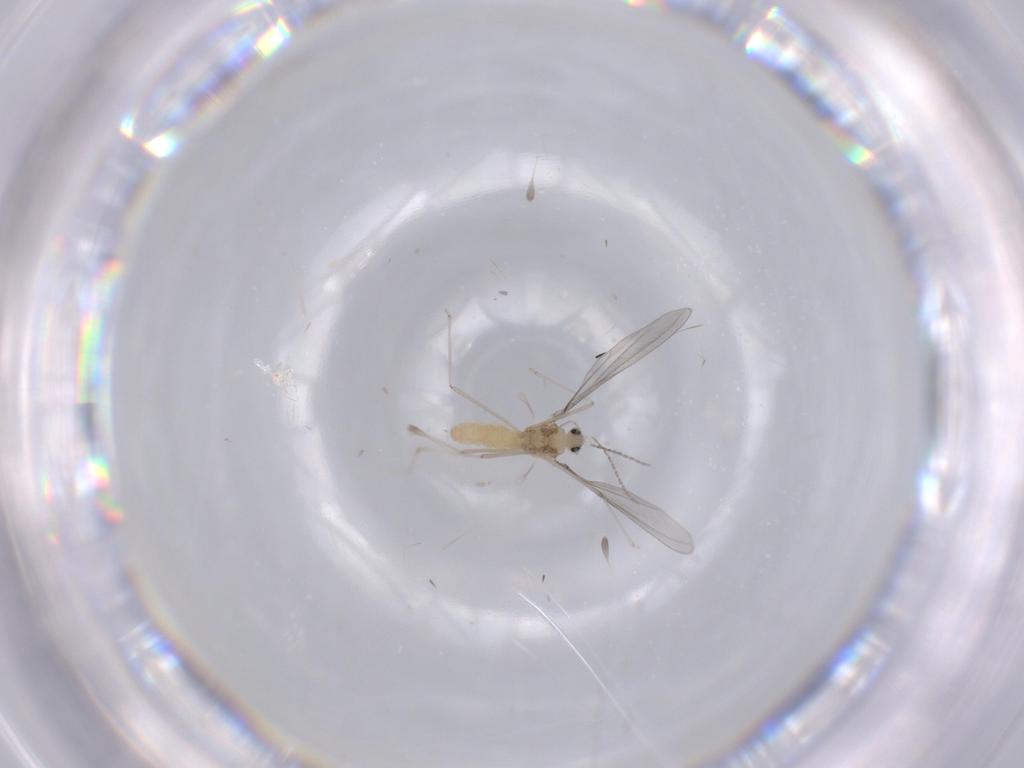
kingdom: Animalia
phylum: Arthropoda
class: Insecta
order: Diptera
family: Cecidomyiidae
